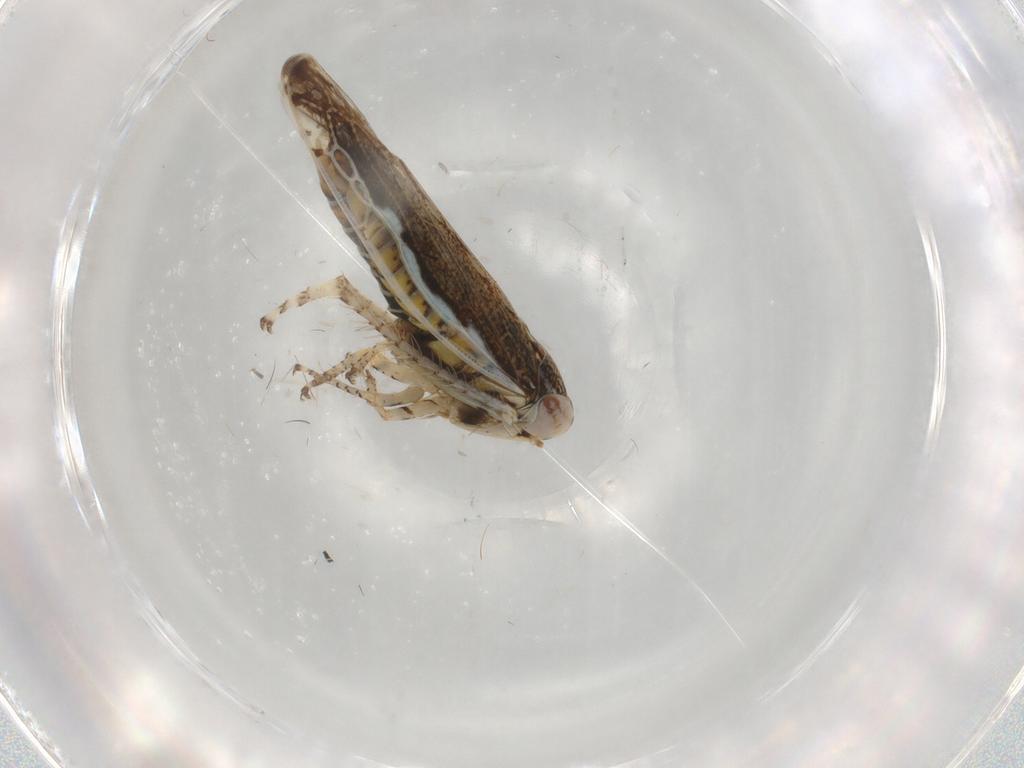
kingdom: Animalia
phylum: Arthropoda
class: Insecta
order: Hemiptera
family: Cicadellidae
